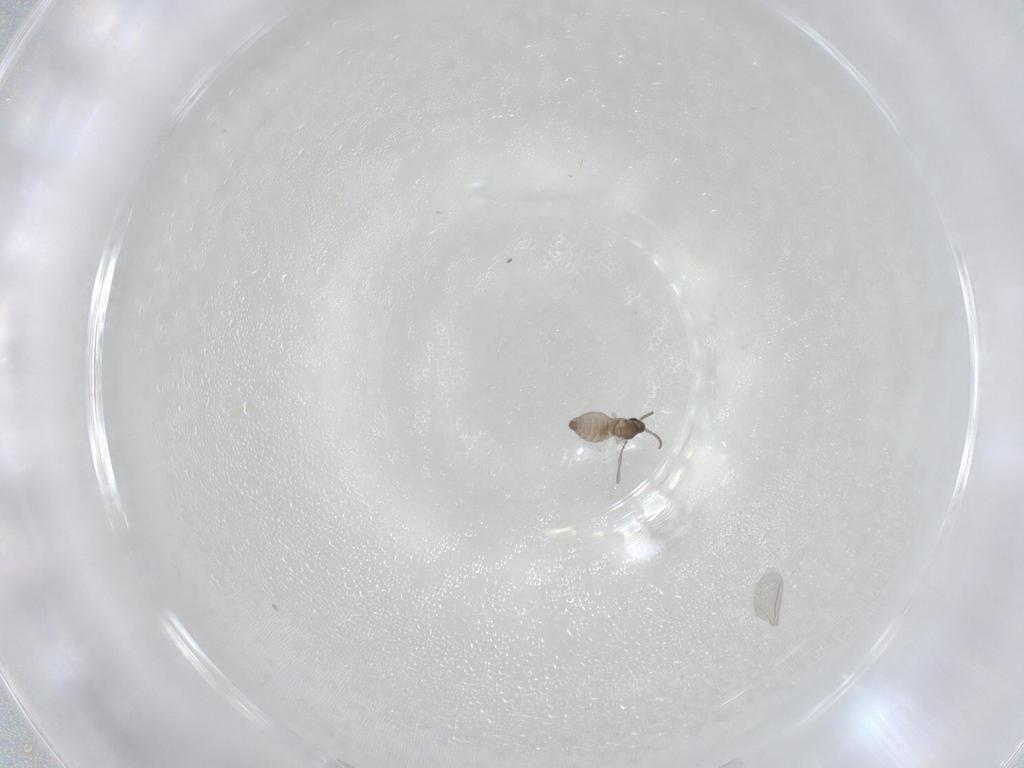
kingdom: Animalia
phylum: Arthropoda
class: Insecta
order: Diptera
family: Cecidomyiidae
